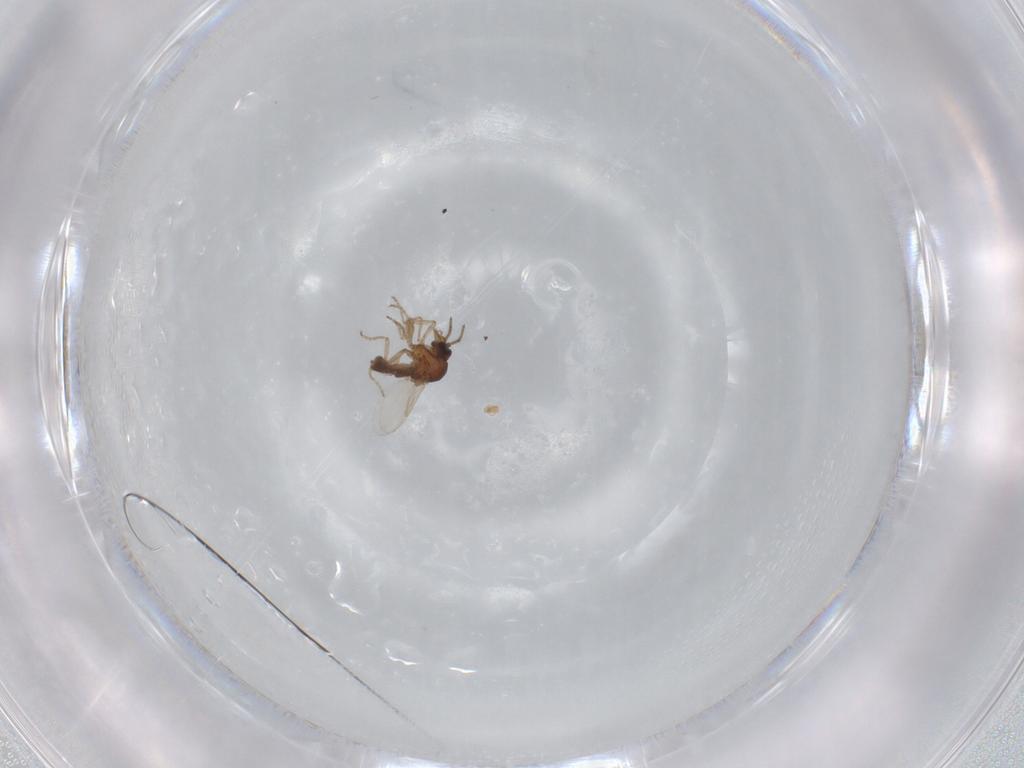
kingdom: Animalia
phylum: Arthropoda
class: Insecta
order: Diptera
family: Ceratopogonidae
